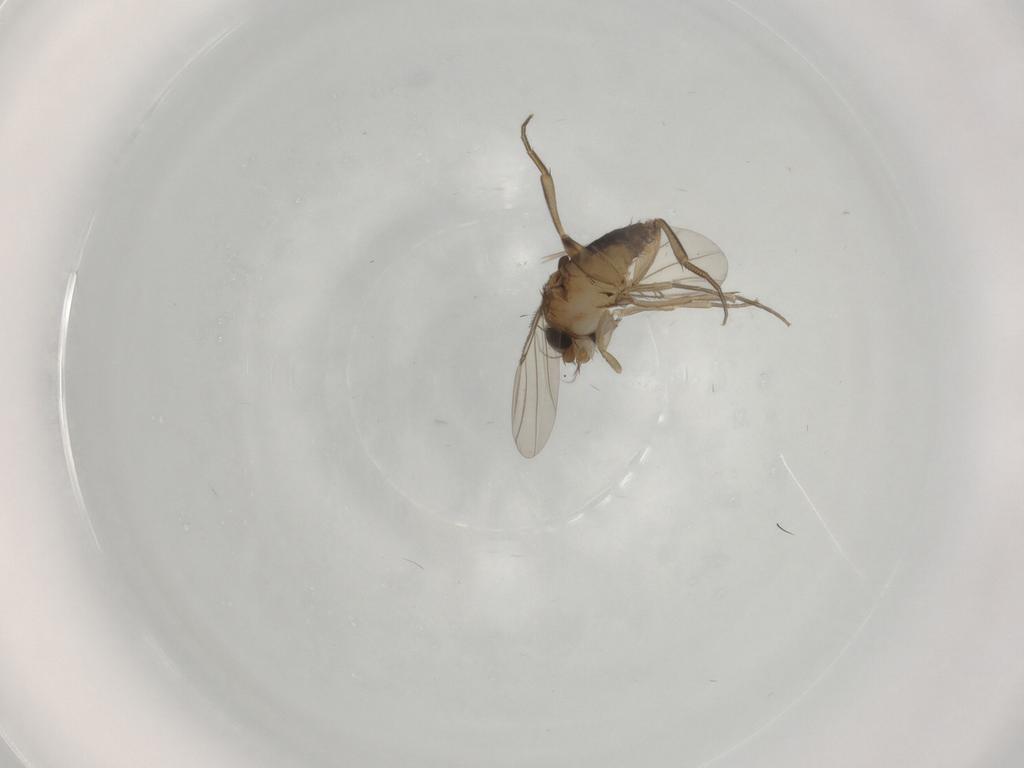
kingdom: Animalia
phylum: Arthropoda
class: Insecta
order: Diptera
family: Phoridae
